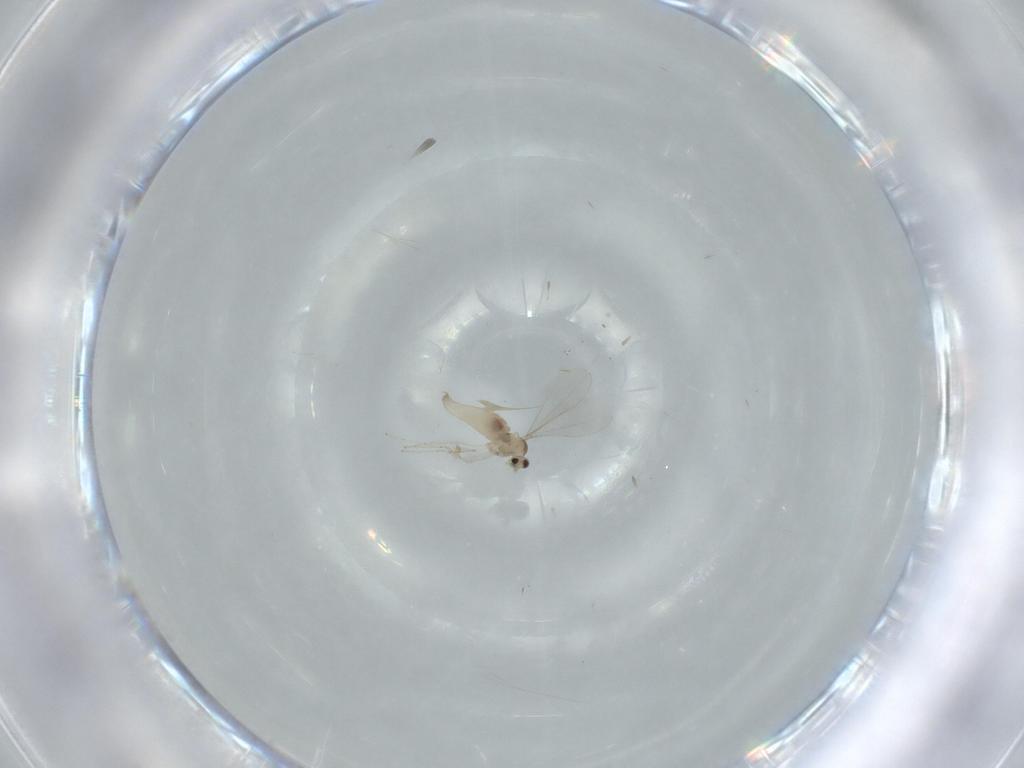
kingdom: Animalia
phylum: Arthropoda
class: Insecta
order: Diptera
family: Cecidomyiidae
